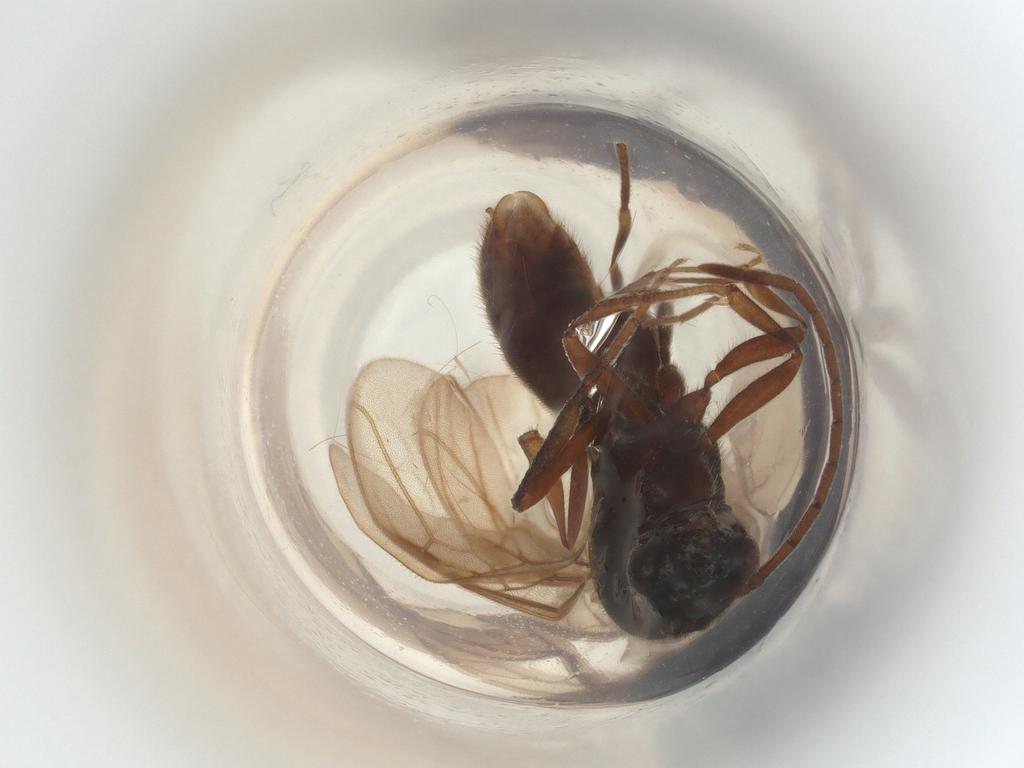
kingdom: Animalia
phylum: Arthropoda
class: Insecta
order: Hymenoptera
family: Formicidae
